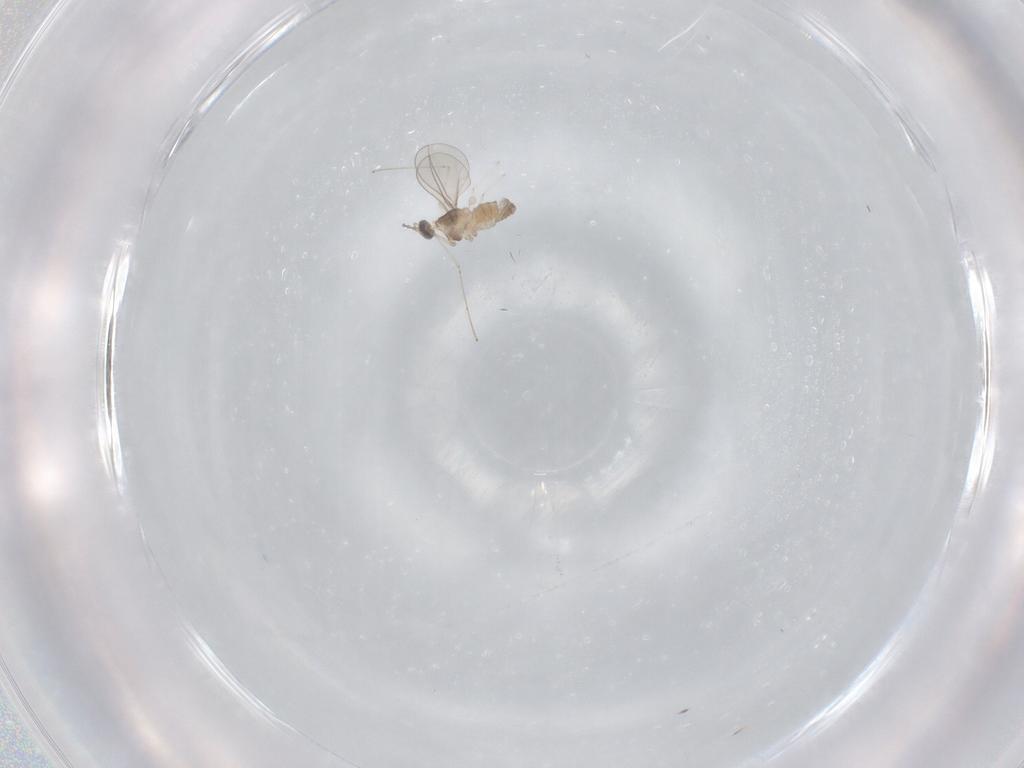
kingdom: Animalia
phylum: Arthropoda
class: Insecta
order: Diptera
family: Cecidomyiidae
